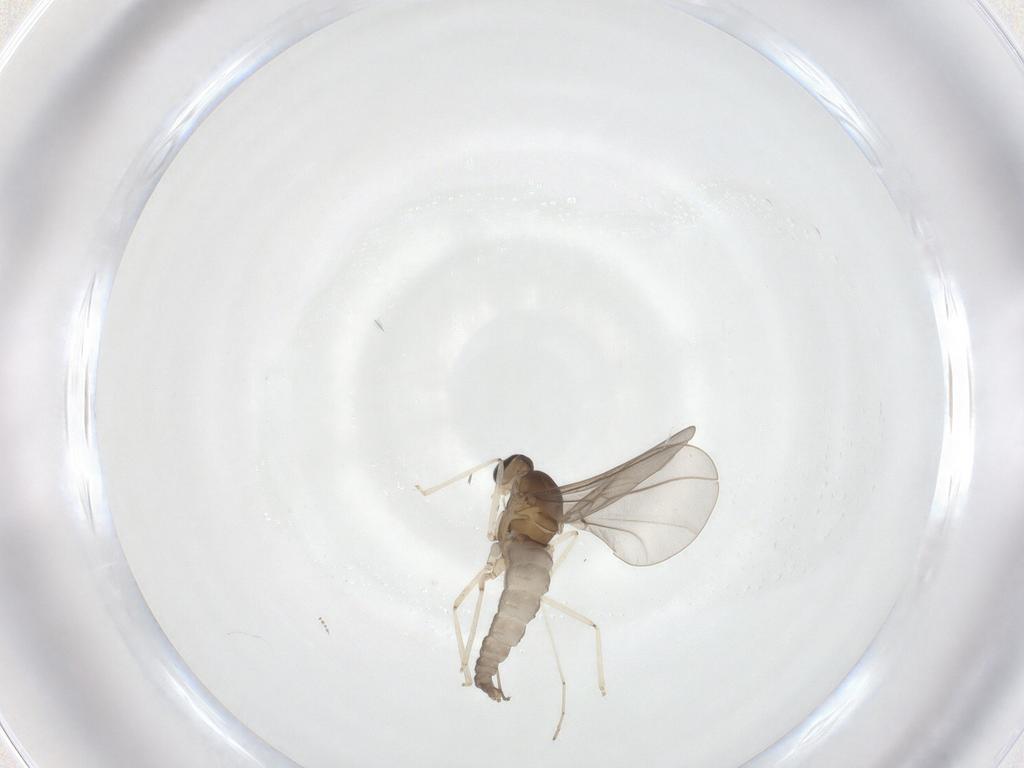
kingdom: Animalia
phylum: Arthropoda
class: Insecta
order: Diptera
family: Cecidomyiidae
